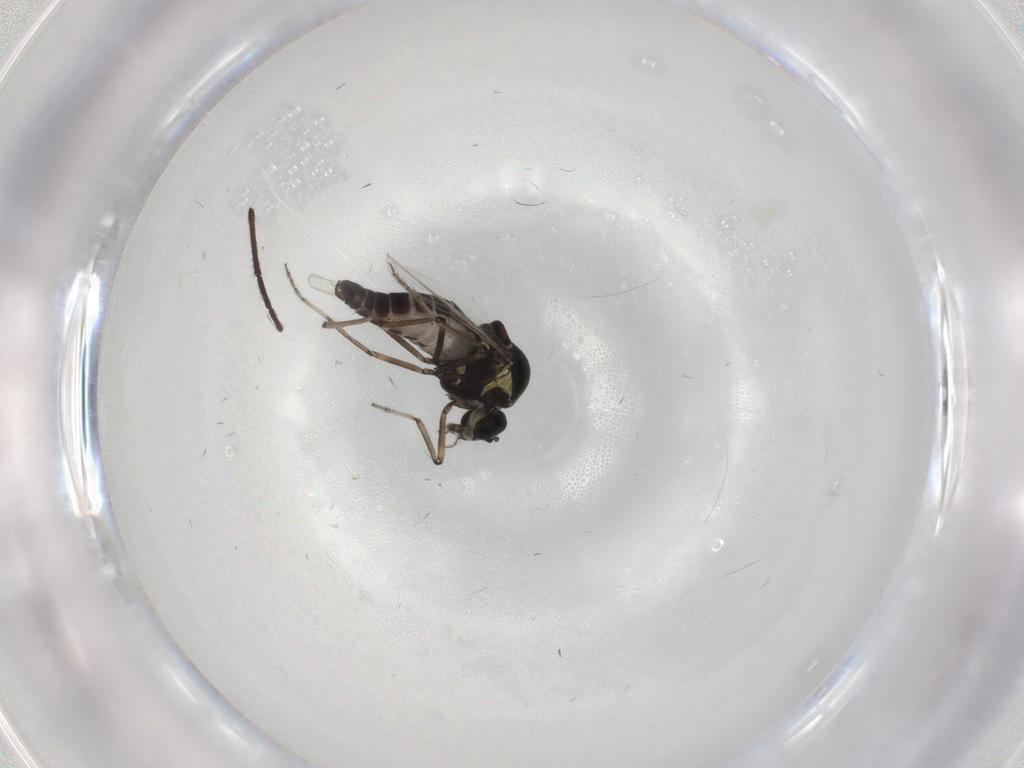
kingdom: Animalia
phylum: Arthropoda
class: Insecta
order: Diptera
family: Chironomidae
